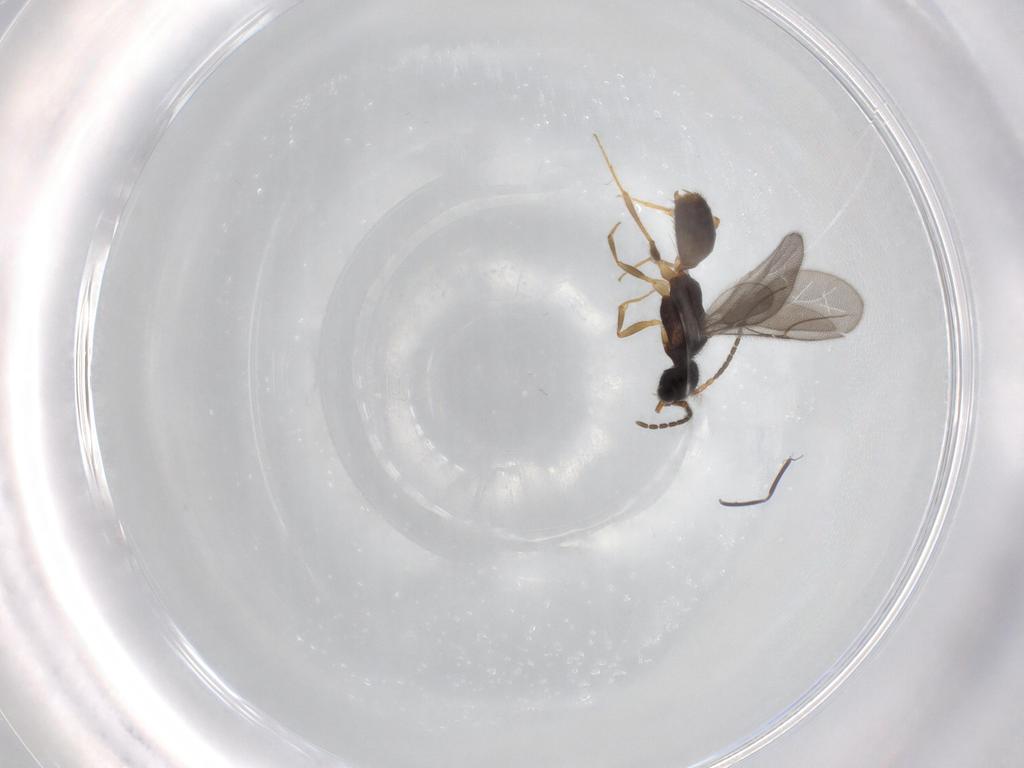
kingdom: Animalia
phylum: Arthropoda
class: Insecta
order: Hymenoptera
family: Bethylidae
